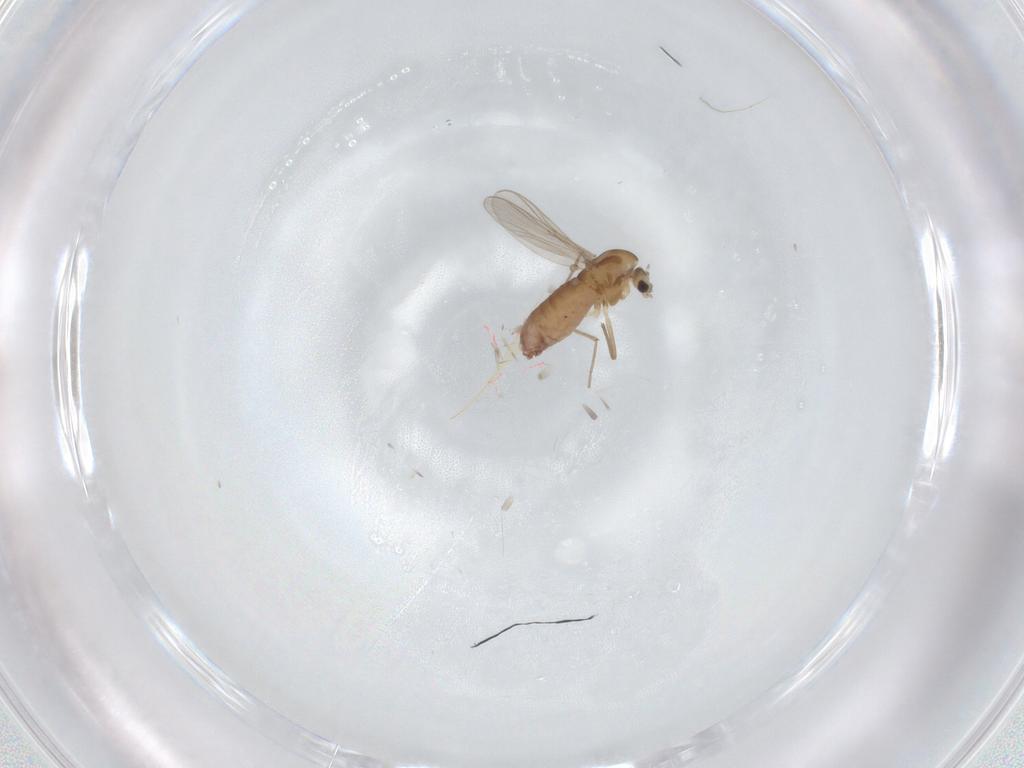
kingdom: Animalia
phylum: Arthropoda
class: Insecta
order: Diptera
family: Chironomidae
